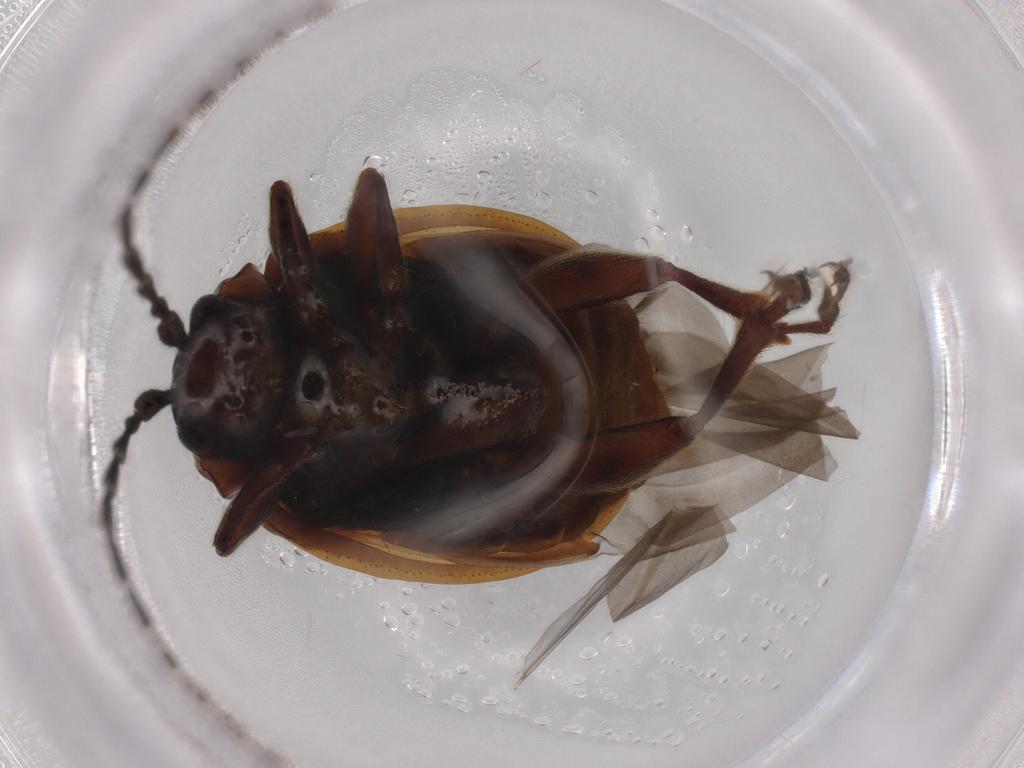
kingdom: Animalia
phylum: Arthropoda
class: Insecta
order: Coleoptera
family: Chrysomelidae
